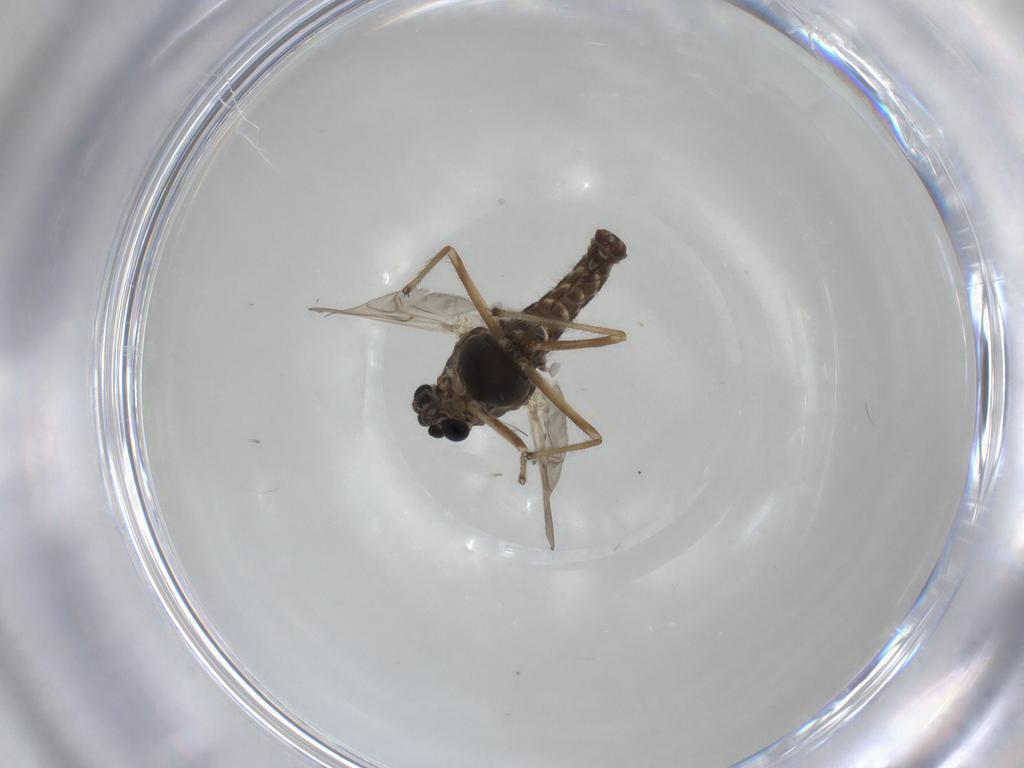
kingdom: Animalia
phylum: Arthropoda
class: Insecta
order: Diptera
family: Chironomidae
